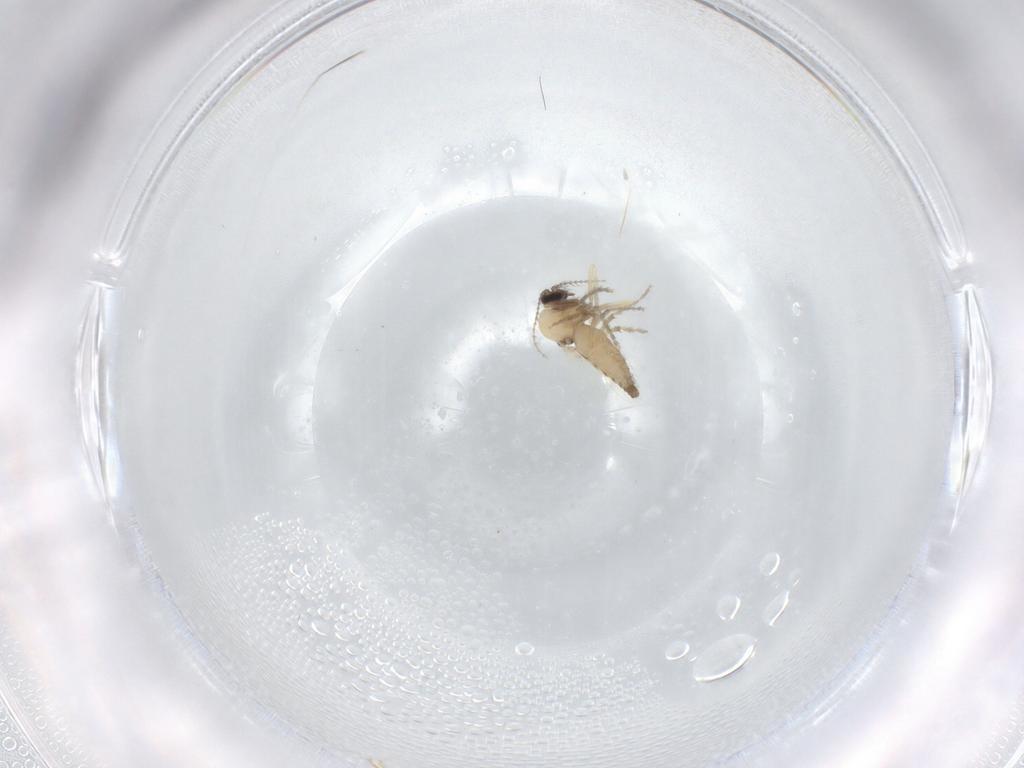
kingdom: Animalia
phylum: Arthropoda
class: Insecta
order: Diptera
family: Ceratopogonidae
